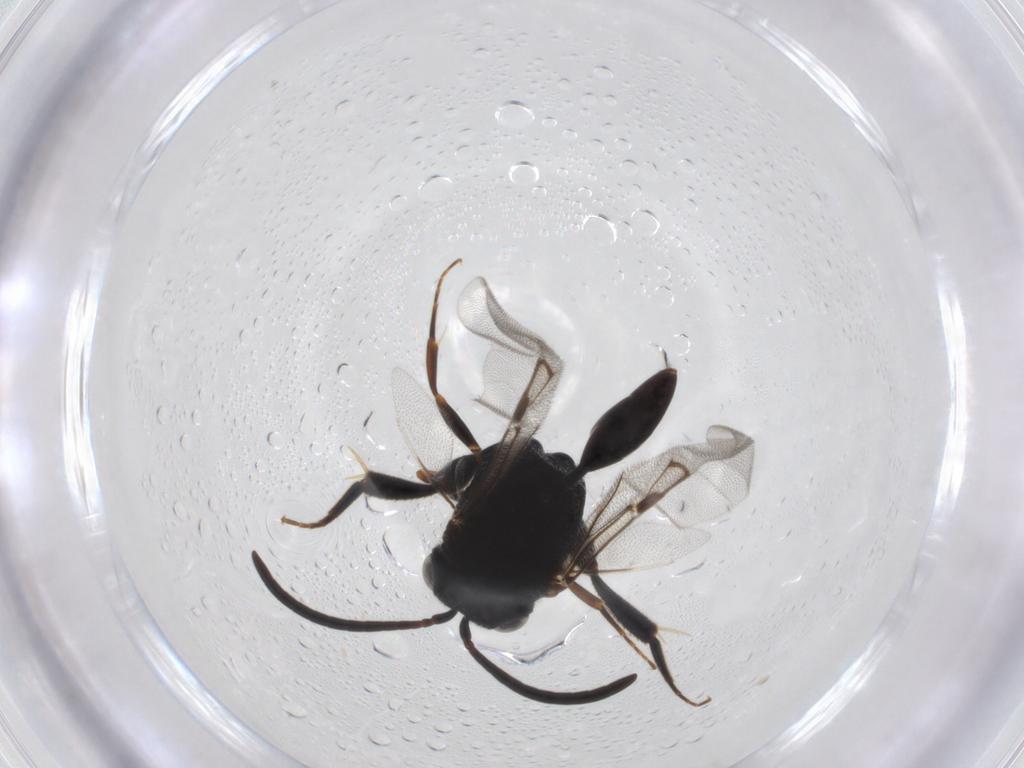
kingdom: Animalia
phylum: Arthropoda
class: Insecta
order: Hymenoptera
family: Evaniidae
